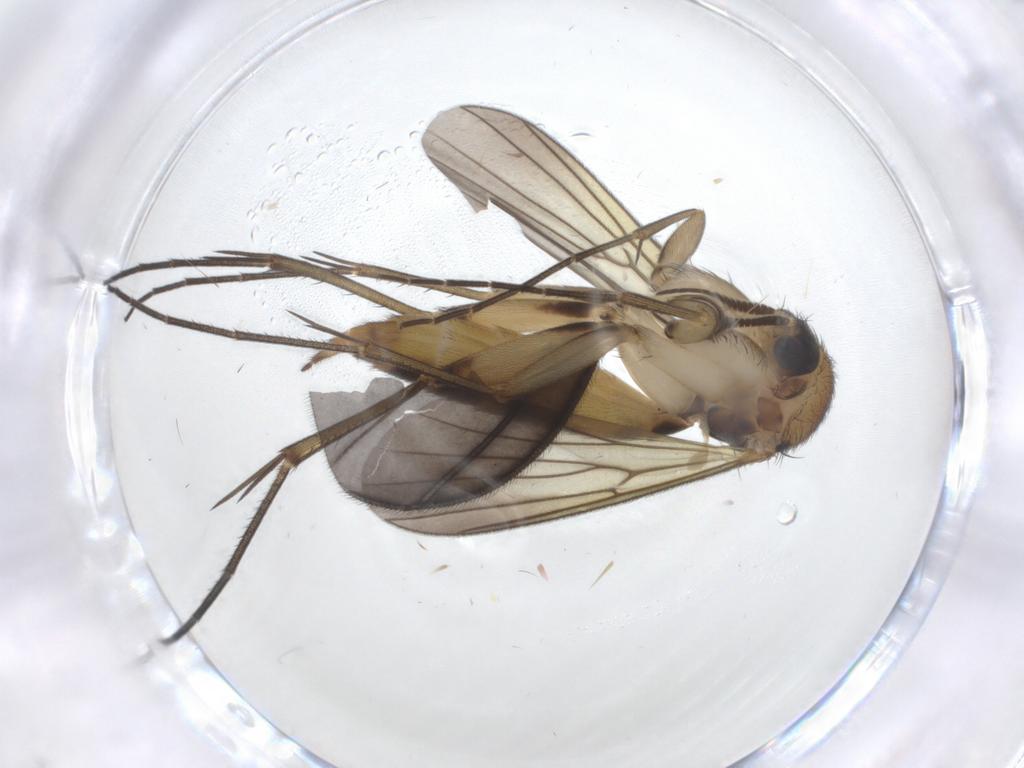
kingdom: Animalia
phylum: Arthropoda
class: Insecta
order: Diptera
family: Mycetophilidae
